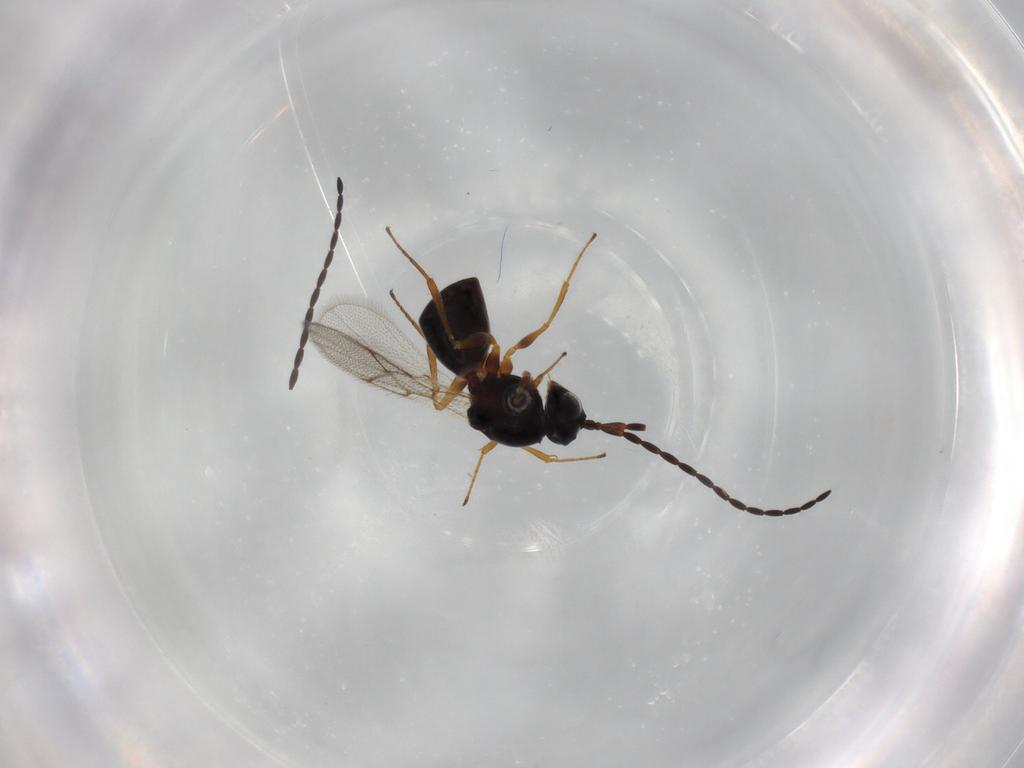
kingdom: Animalia
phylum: Arthropoda
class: Insecta
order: Hymenoptera
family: Figitidae
